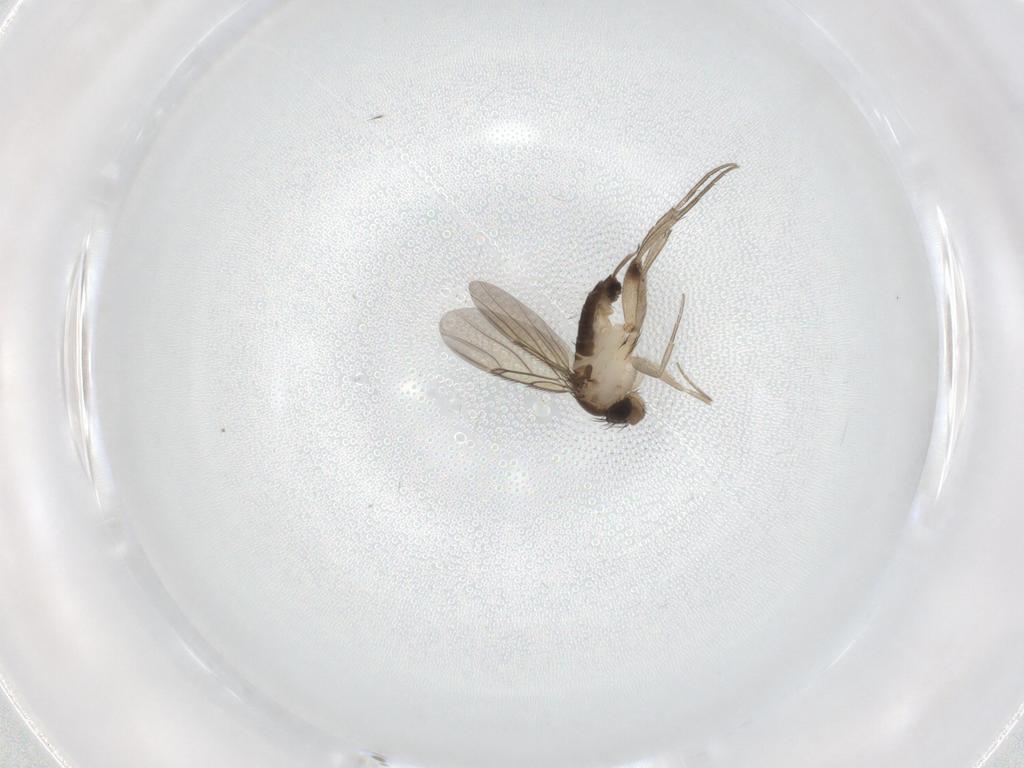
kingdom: Animalia
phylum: Arthropoda
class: Insecta
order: Diptera
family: Phoridae
